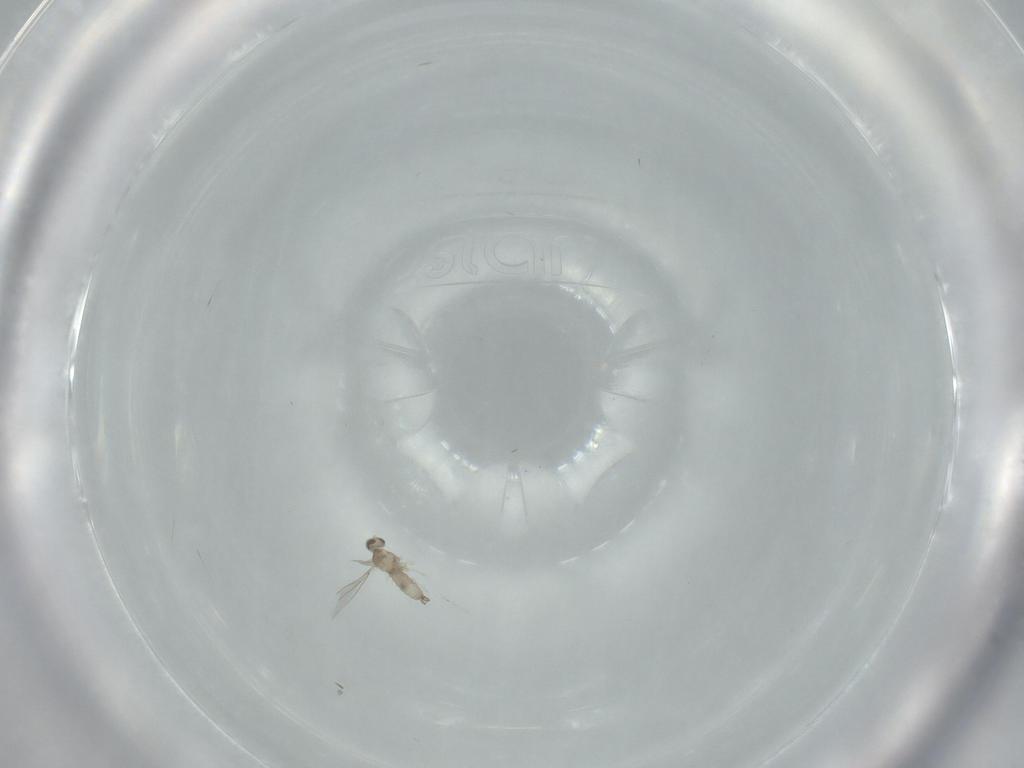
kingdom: Animalia
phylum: Arthropoda
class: Insecta
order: Diptera
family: Cecidomyiidae
